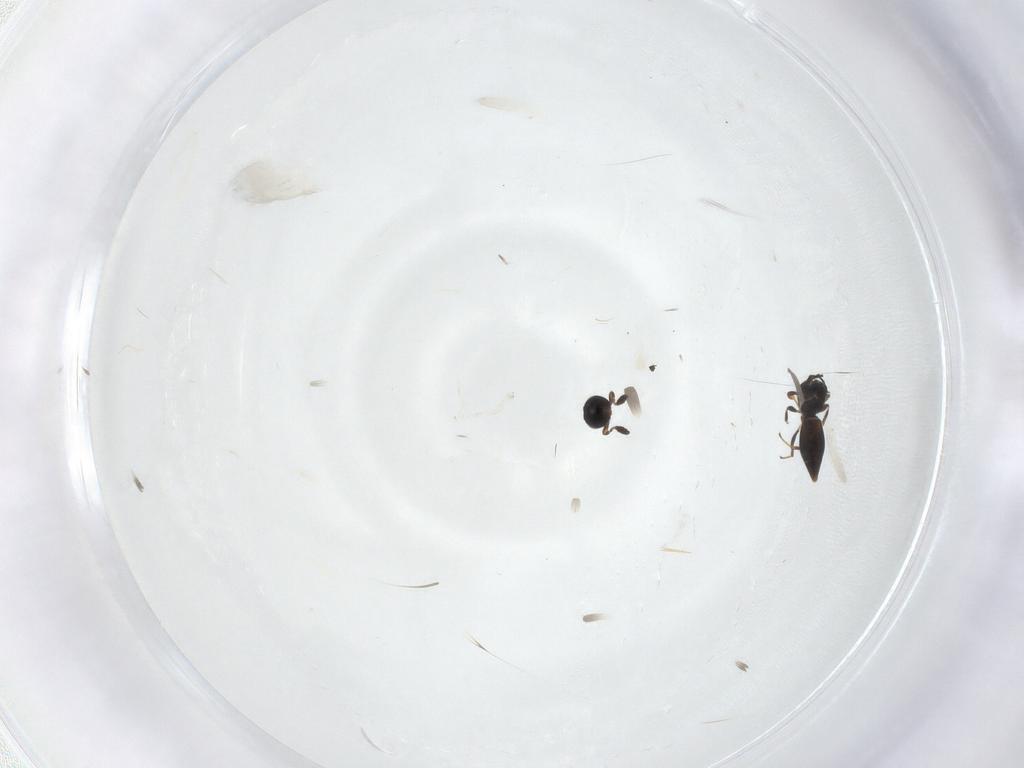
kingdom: Animalia
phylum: Arthropoda
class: Insecta
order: Hymenoptera
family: Platygastridae
